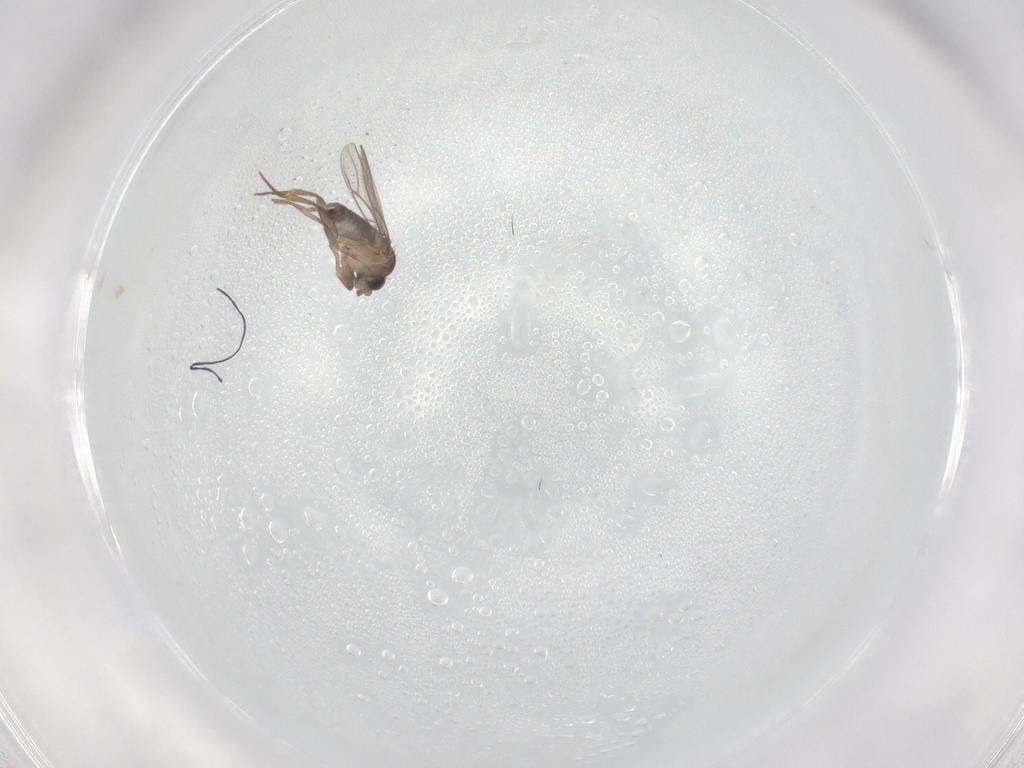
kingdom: Animalia
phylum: Arthropoda
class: Insecta
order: Diptera
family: Phoridae
